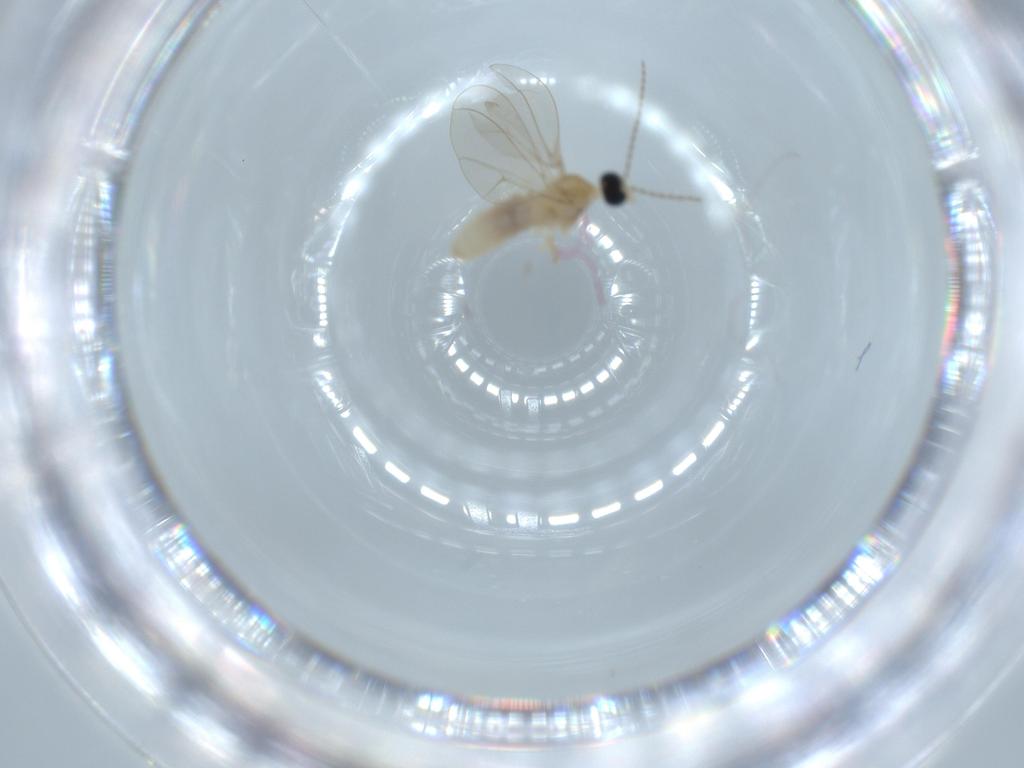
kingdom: Animalia
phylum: Arthropoda
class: Insecta
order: Diptera
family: Cecidomyiidae
